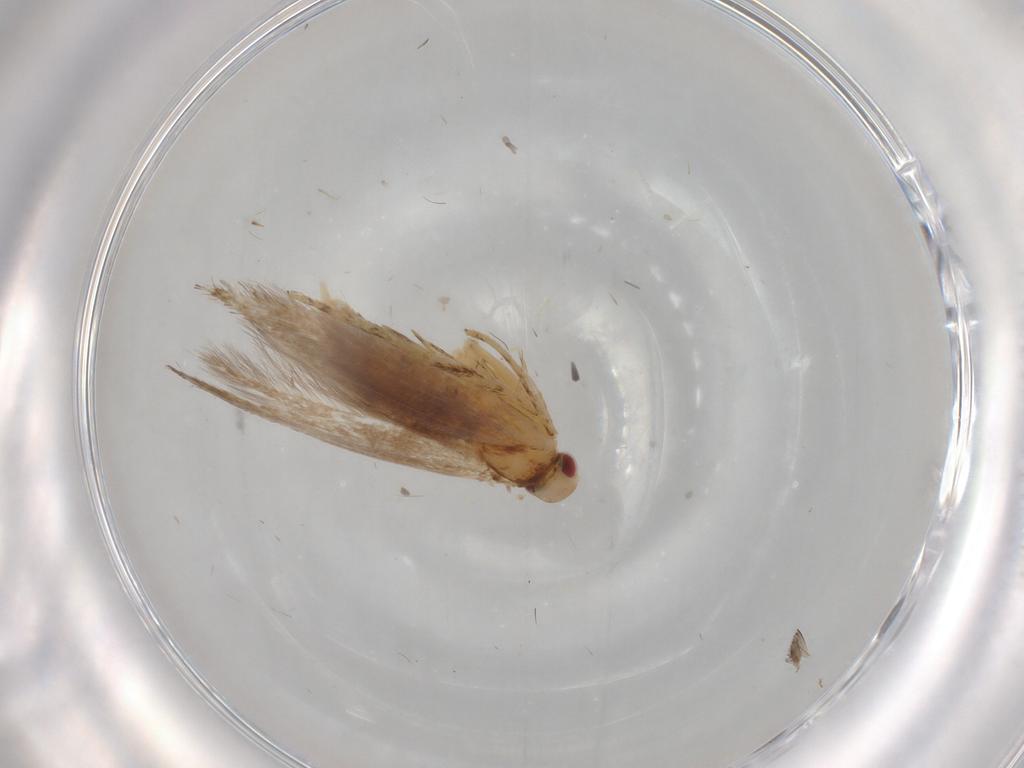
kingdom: Animalia
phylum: Arthropoda
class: Insecta
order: Lepidoptera
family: Cosmopterigidae
